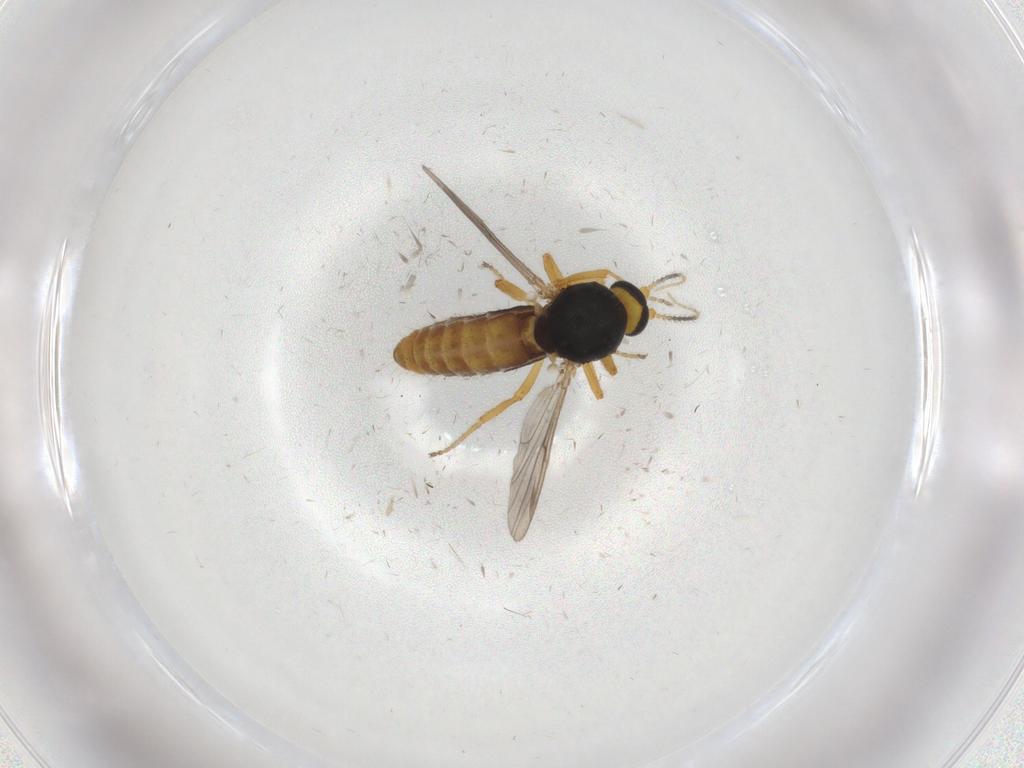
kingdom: Animalia
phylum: Arthropoda
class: Insecta
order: Diptera
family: Ceratopogonidae
